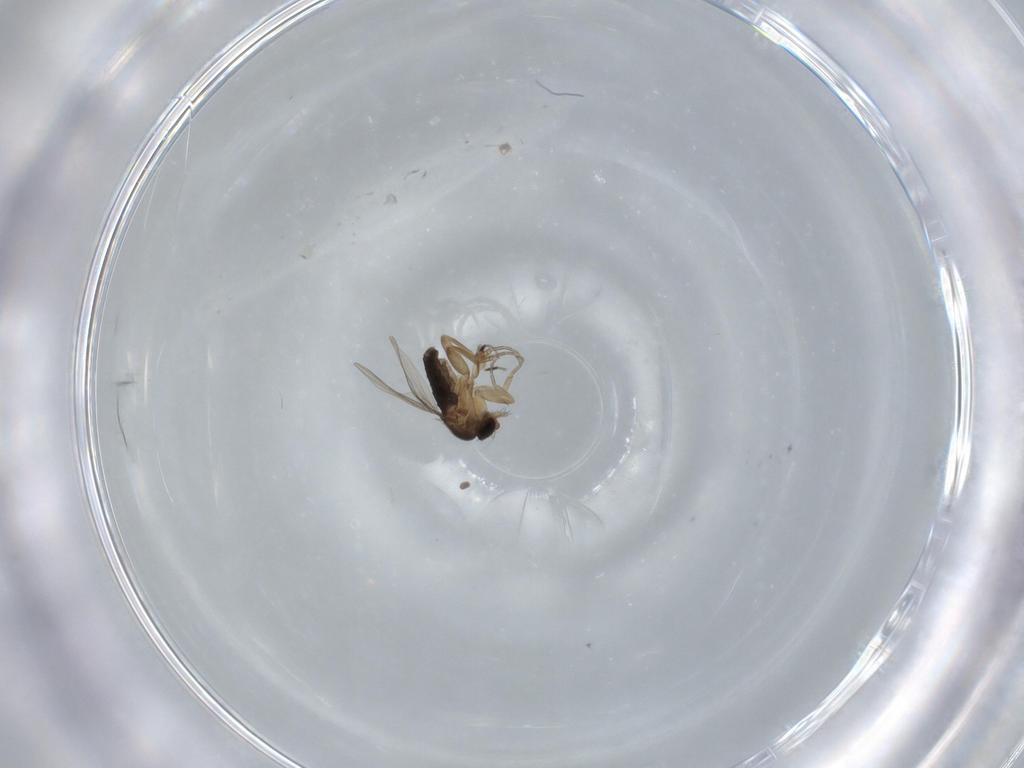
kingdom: Animalia
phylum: Arthropoda
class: Insecta
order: Diptera
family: Phoridae
